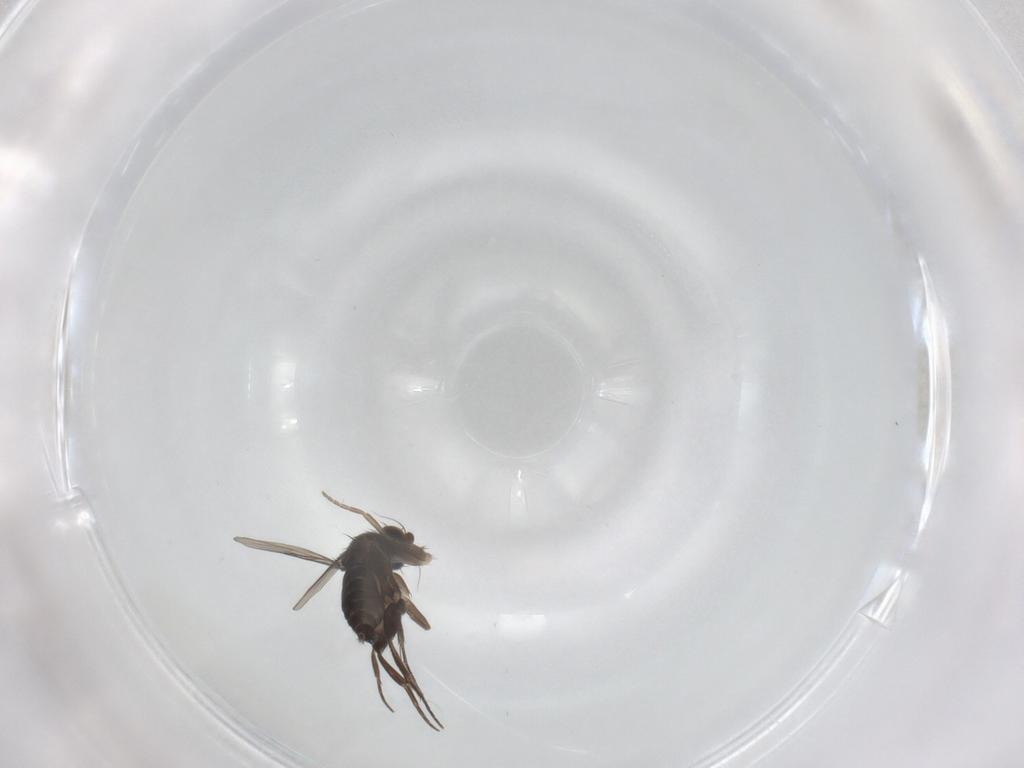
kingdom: Animalia
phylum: Arthropoda
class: Insecta
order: Diptera
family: Phoridae
